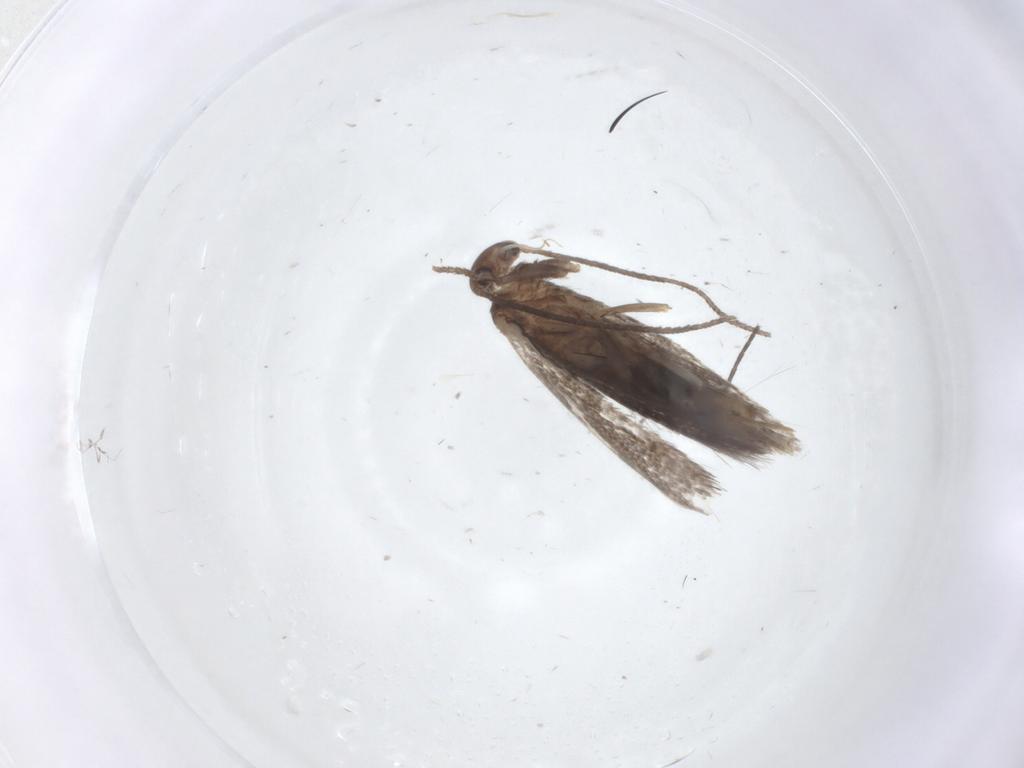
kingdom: Animalia
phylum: Arthropoda
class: Insecta
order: Lepidoptera
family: Elachistidae
